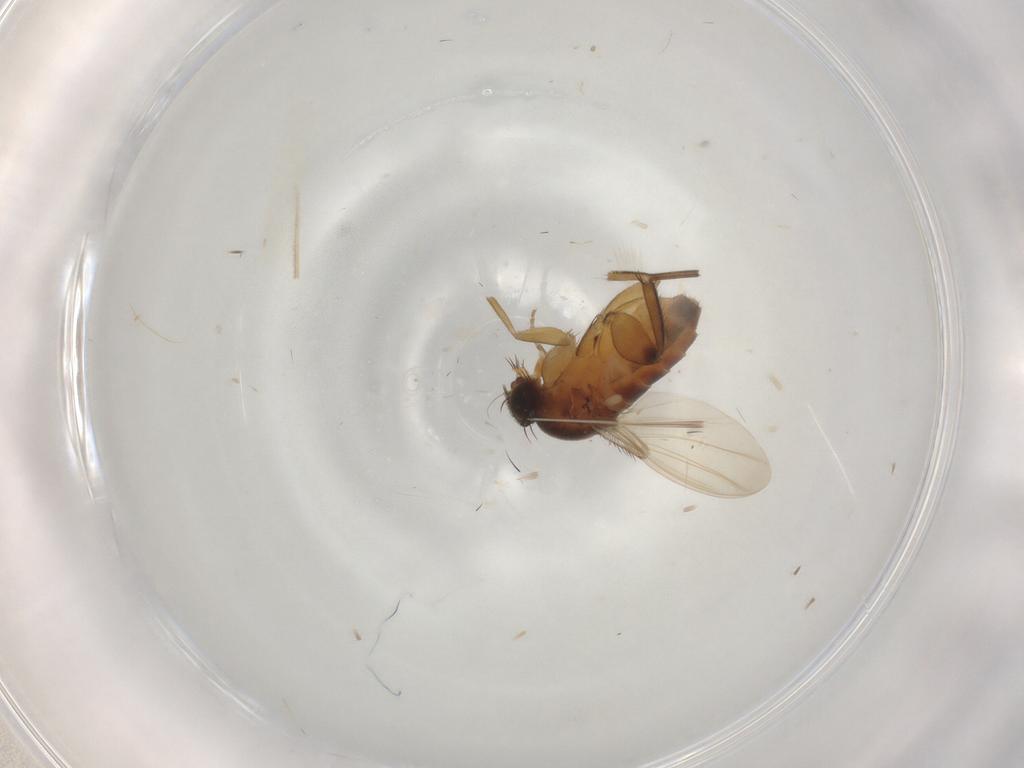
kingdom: Animalia
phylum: Arthropoda
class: Insecta
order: Diptera
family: Phoridae
